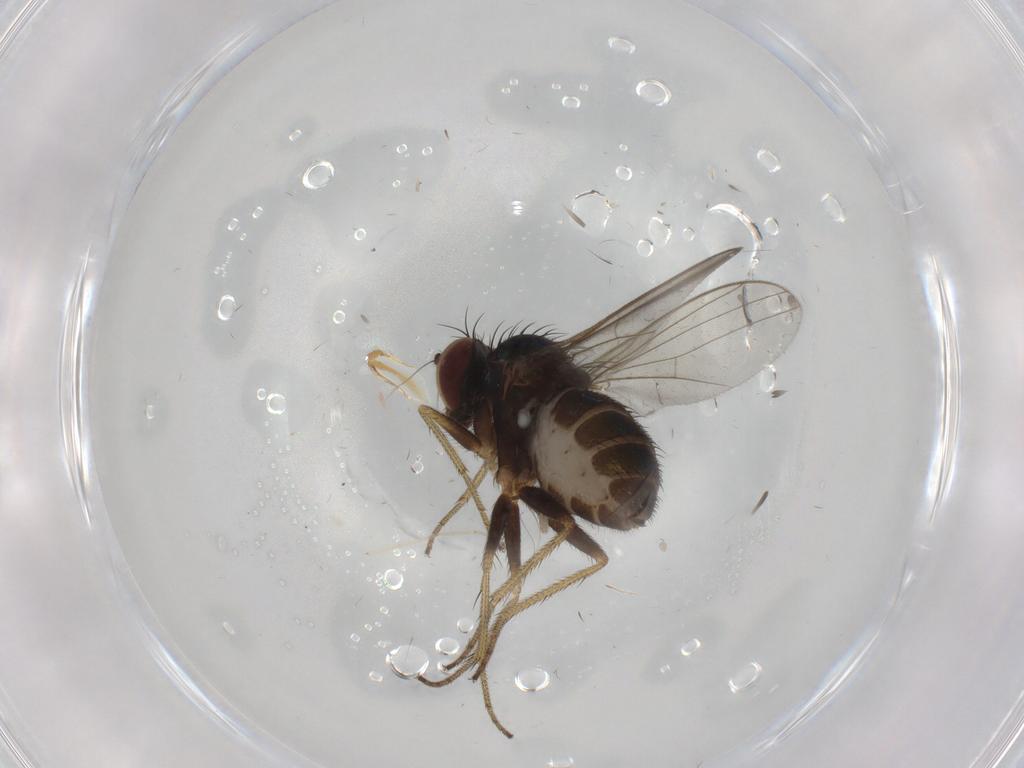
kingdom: Animalia
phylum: Arthropoda
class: Insecta
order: Diptera
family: Cecidomyiidae
